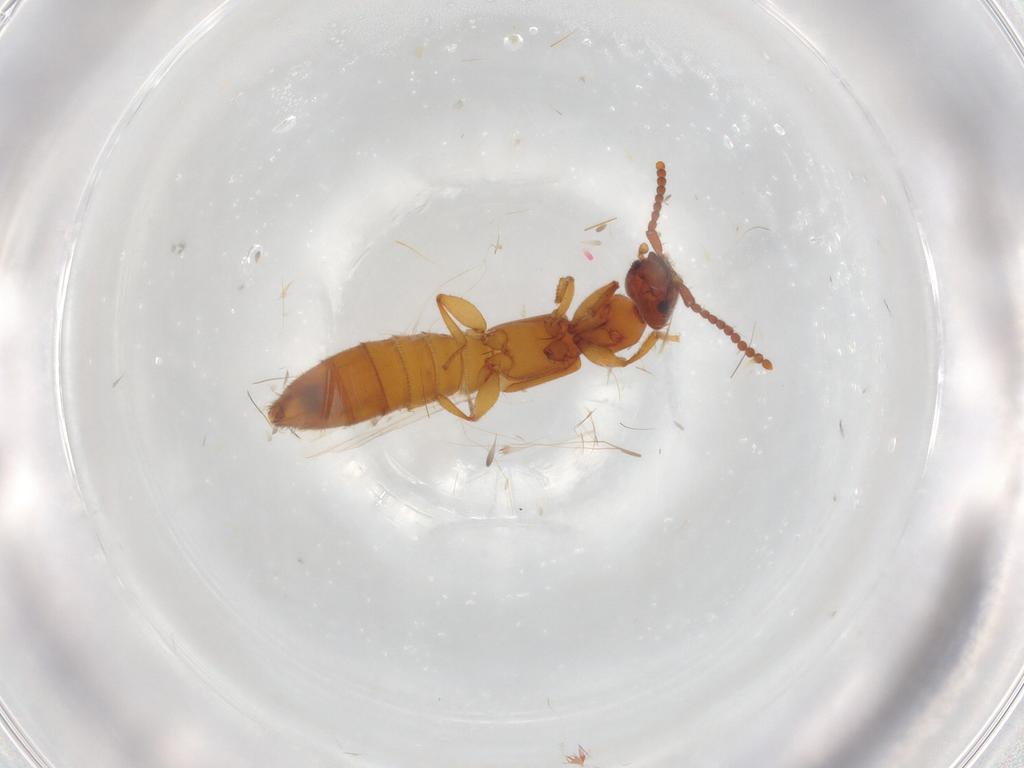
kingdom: Animalia
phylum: Arthropoda
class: Insecta
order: Coleoptera
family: Staphylinidae
